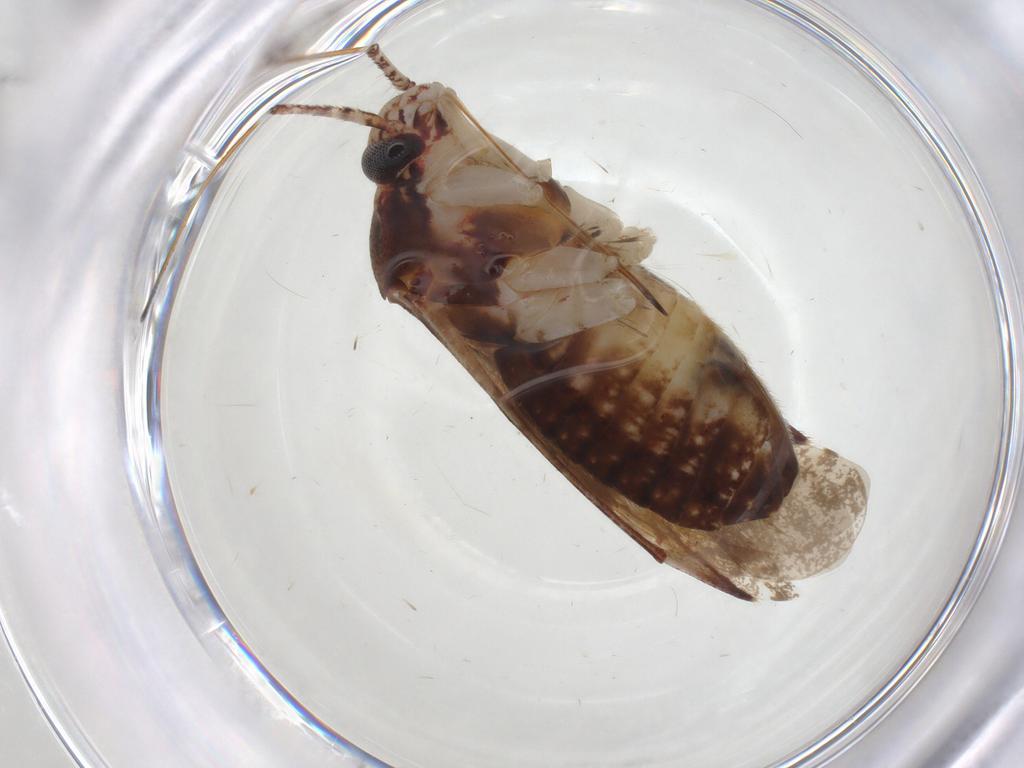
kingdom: Animalia
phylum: Arthropoda
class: Insecta
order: Hemiptera
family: Miridae
